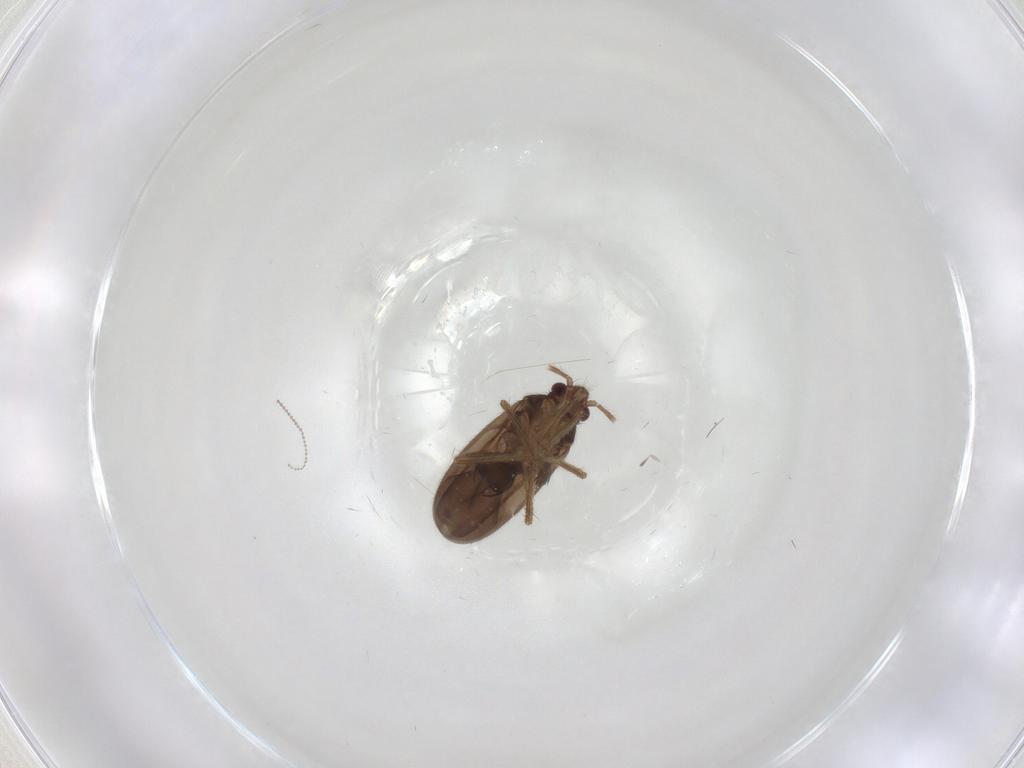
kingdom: Animalia
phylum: Arthropoda
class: Insecta
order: Hemiptera
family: Ceratocombidae
